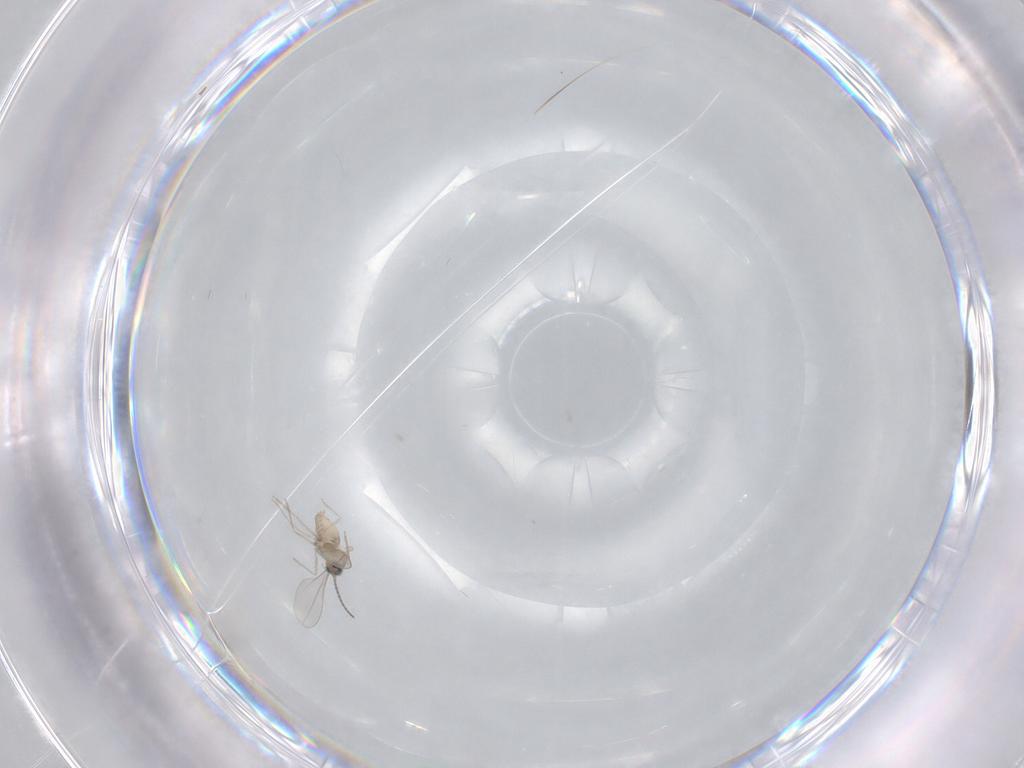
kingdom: Animalia
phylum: Arthropoda
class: Insecta
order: Diptera
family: Cecidomyiidae
